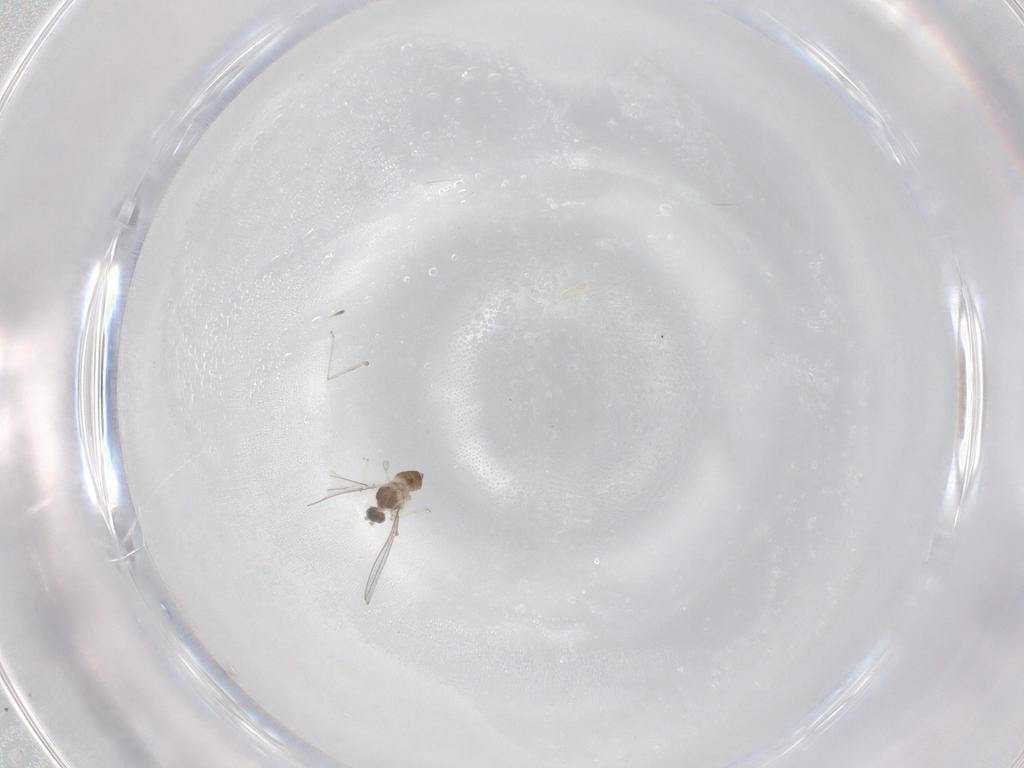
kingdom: Animalia
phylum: Arthropoda
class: Insecta
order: Diptera
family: Cecidomyiidae
